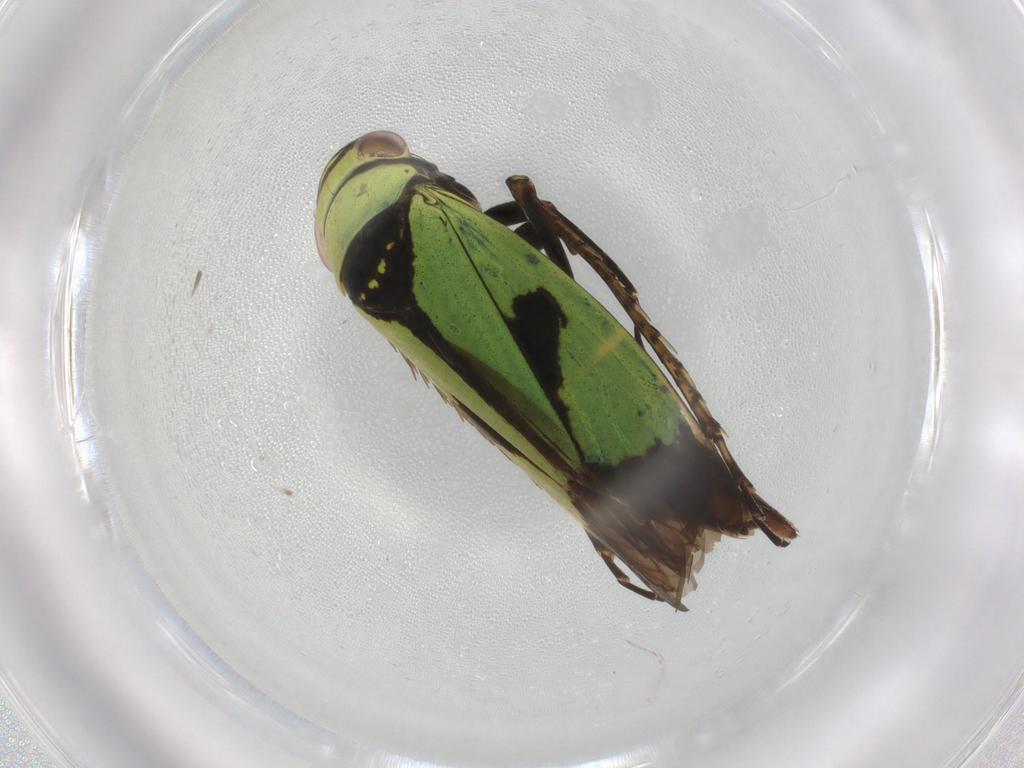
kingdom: Animalia
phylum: Arthropoda
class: Insecta
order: Hemiptera
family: Cicadellidae
